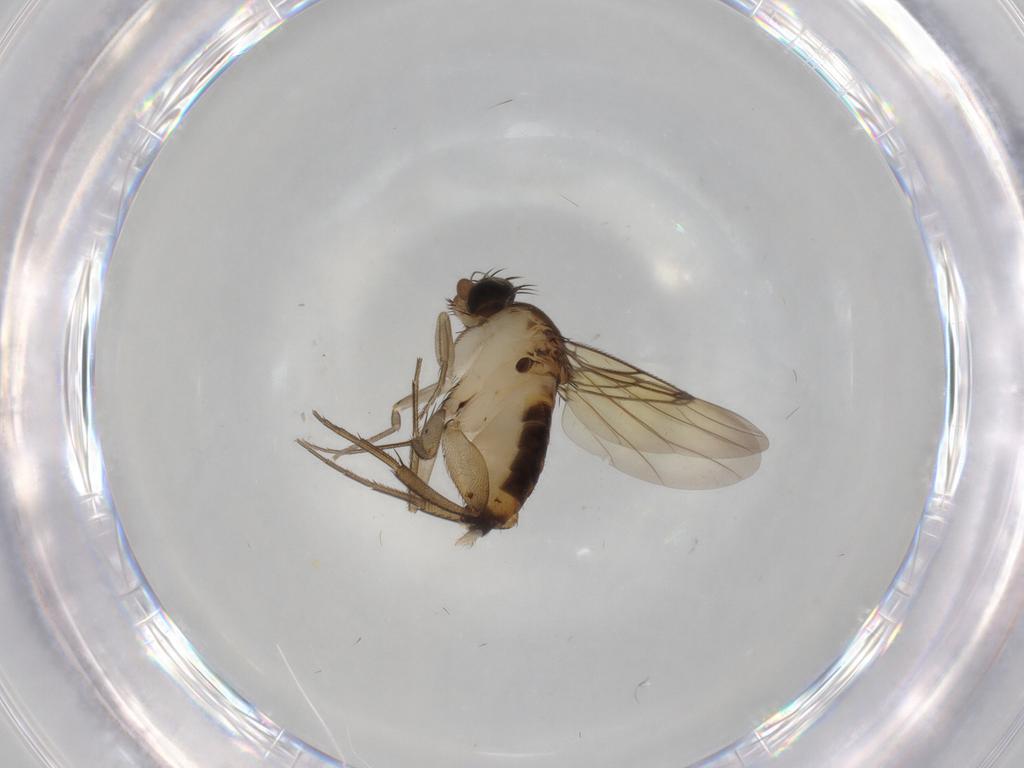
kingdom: Animalia
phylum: Arthropoda
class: Insecta
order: Diptera
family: Tabanidae
